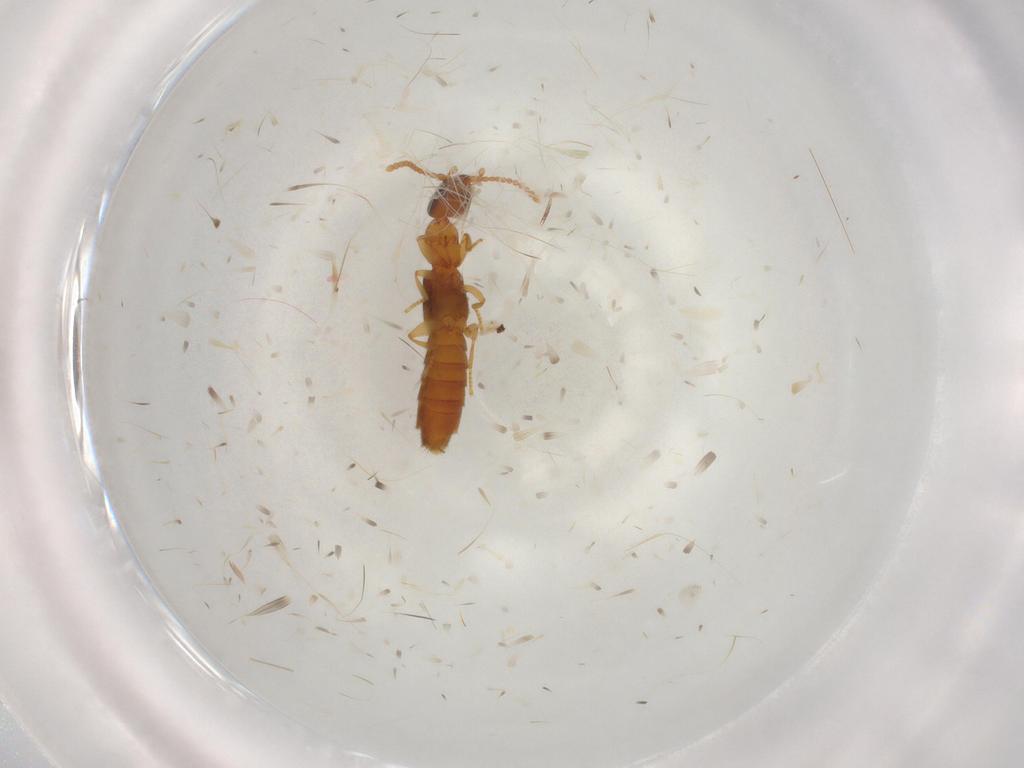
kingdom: Animalia
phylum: Arthropoda
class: Insecta
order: Coleoptera
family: Staphylinidae
